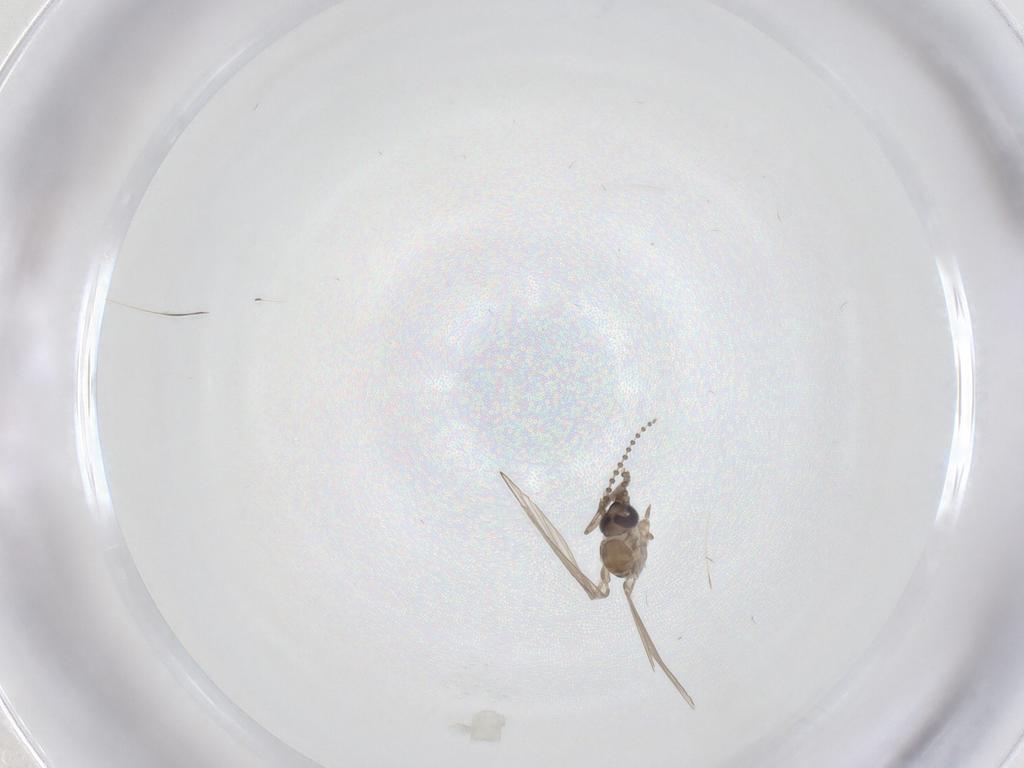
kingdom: Animalia
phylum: Arthropoda
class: Insecta
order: Diptera
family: Psychodidae
